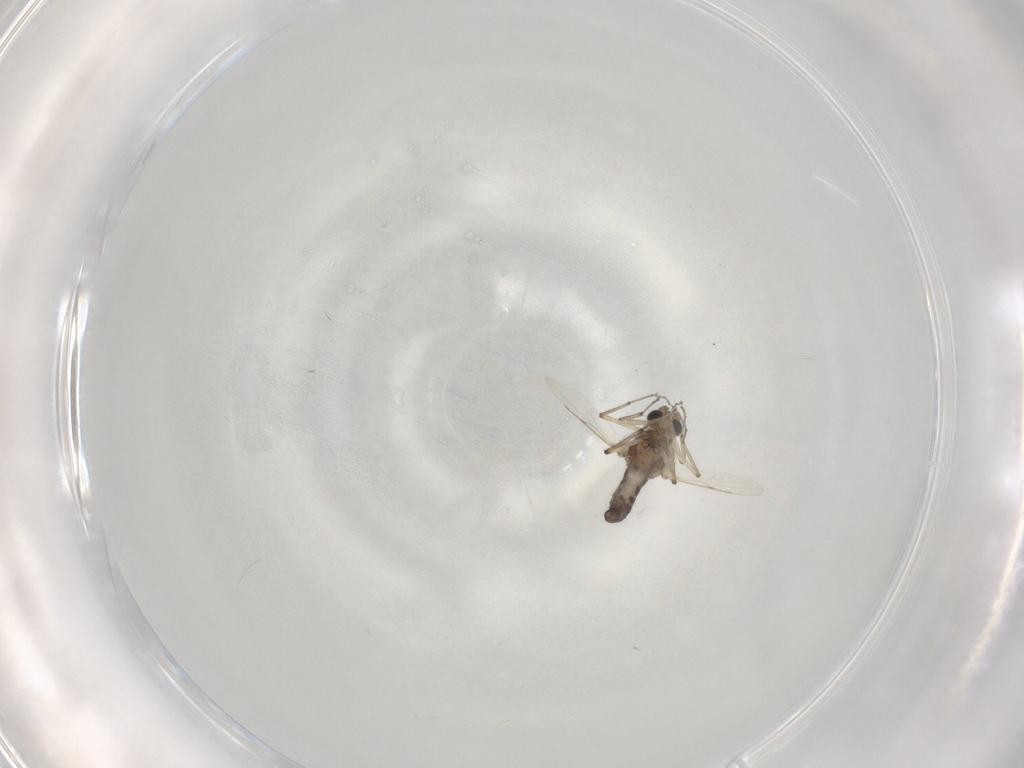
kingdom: Animalia
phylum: Arthropoda
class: Insecta
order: Diptera
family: Ceratopogonidae
